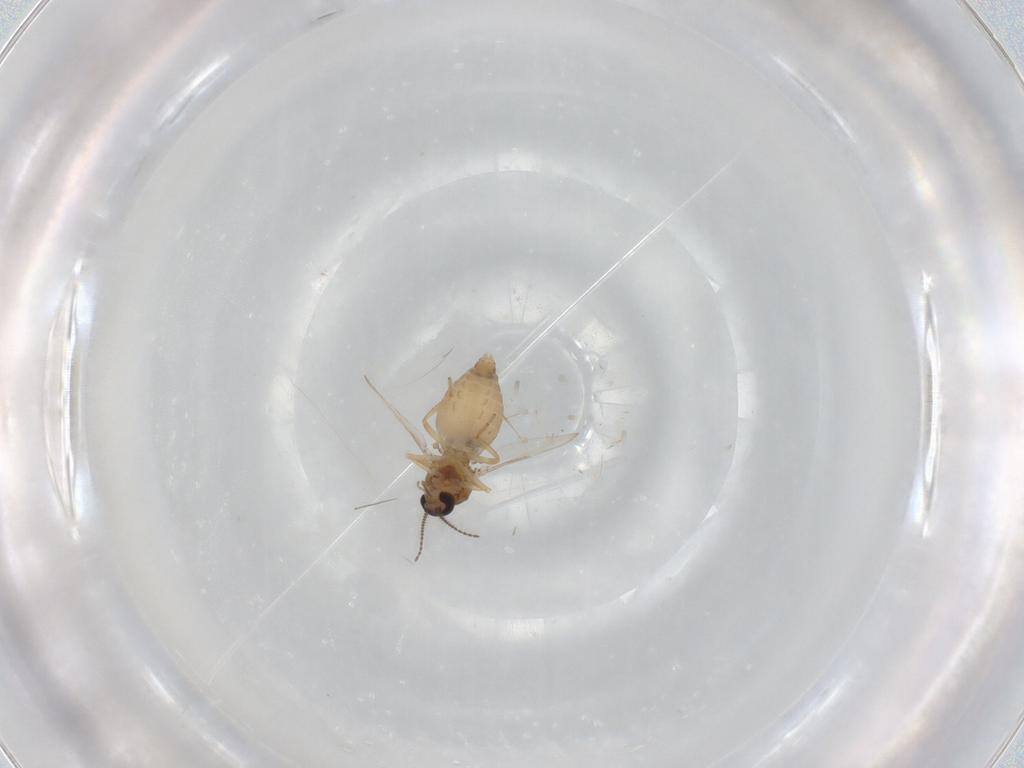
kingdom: Animalia
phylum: Arthropoda
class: Insecta
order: Diptera
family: Ceratopogonidae
